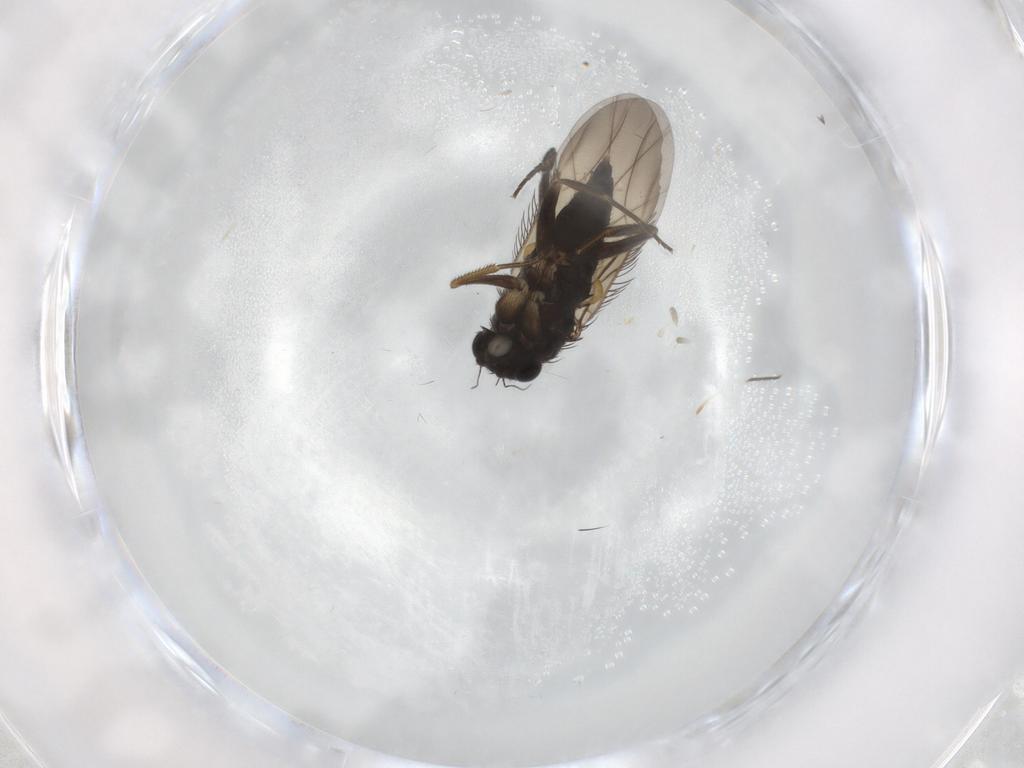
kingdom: Animalia
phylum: Arthropoda
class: Insecta
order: Diptera
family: Phoridae
